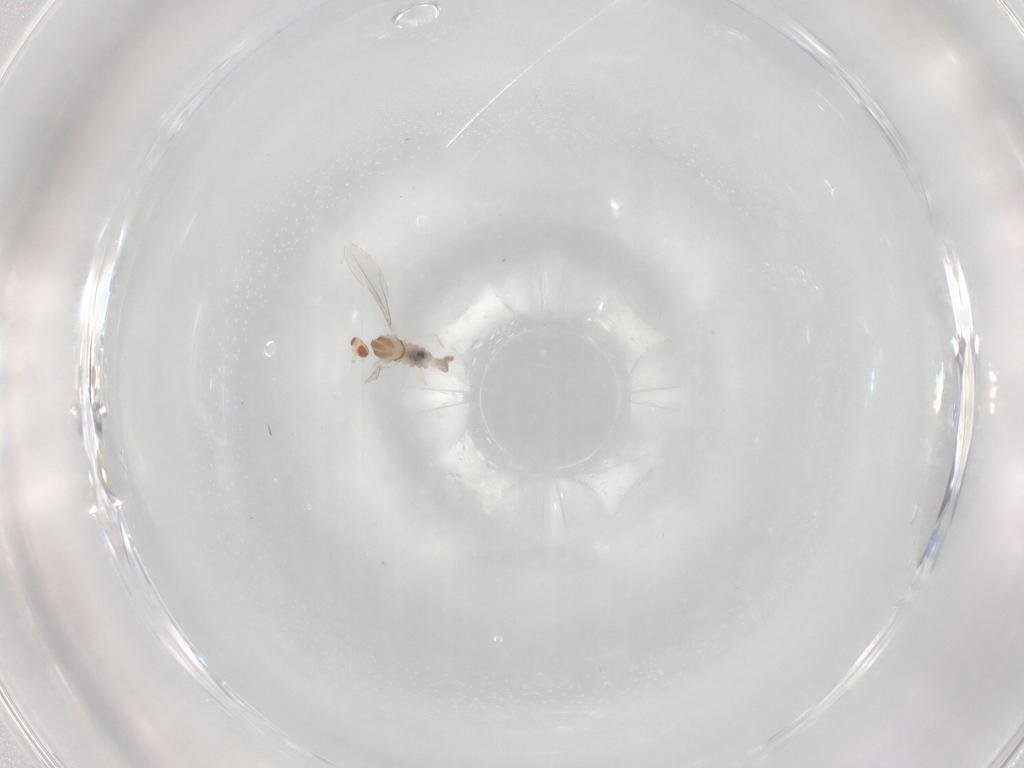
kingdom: Animalia
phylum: Arthropoda
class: Insecta
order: Diptera
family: Cecidomyiidae
